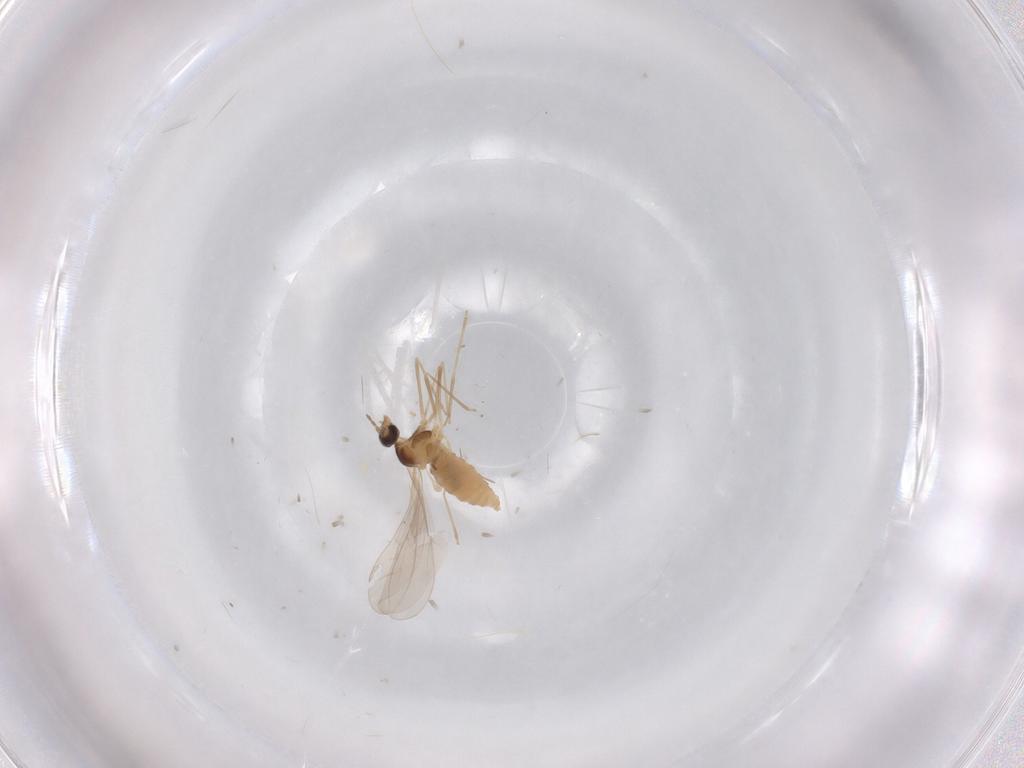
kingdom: Animalia
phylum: Arthropoda
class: Insecta
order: Diptera
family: Cecidomyiidae
